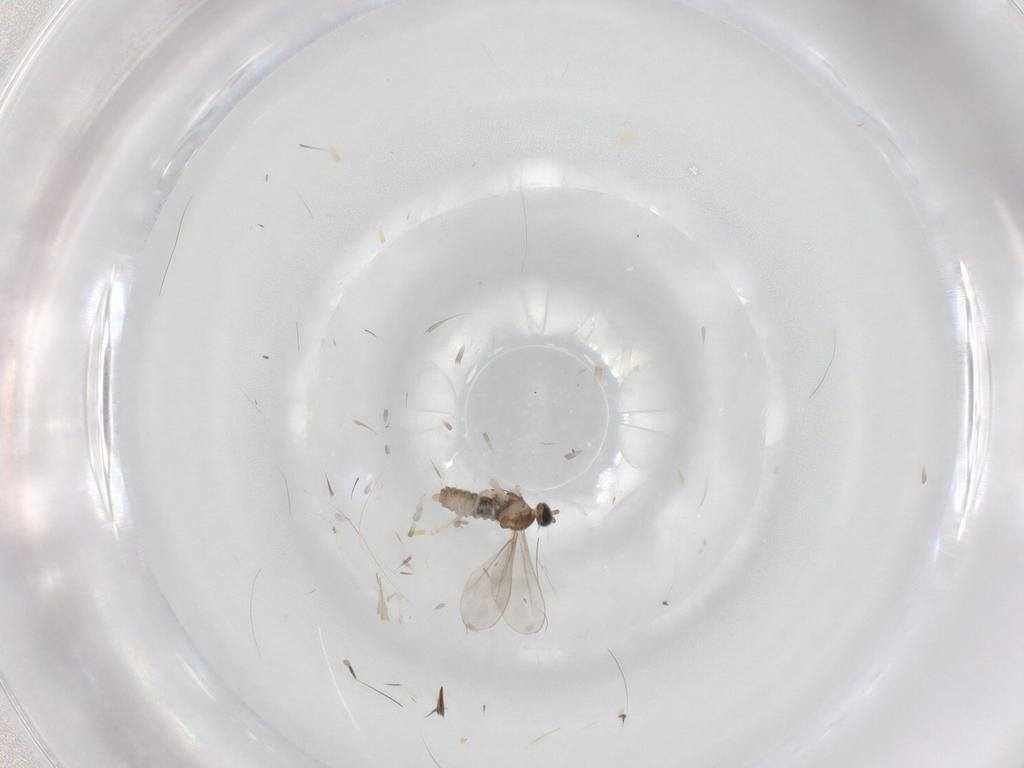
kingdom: Animalia
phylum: Arthropoda
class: Insecta
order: Diptera
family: Cecidomyiidae
